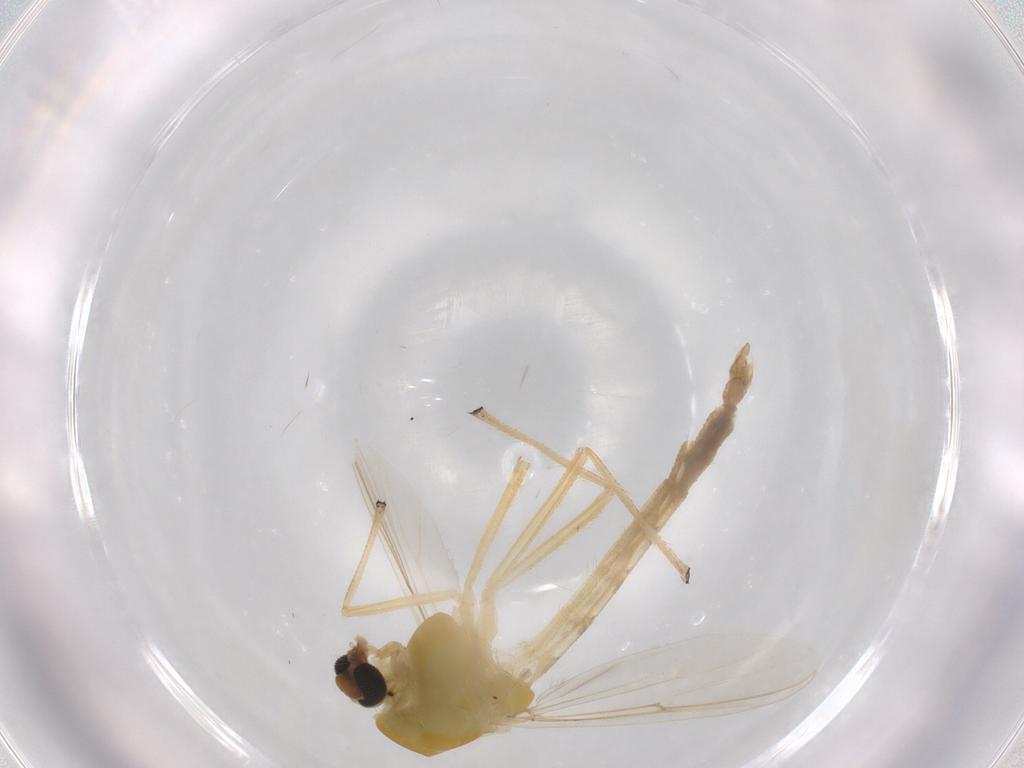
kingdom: Animalia
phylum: Arthropoda
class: Insecta
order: Diptera
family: Chironomidae
